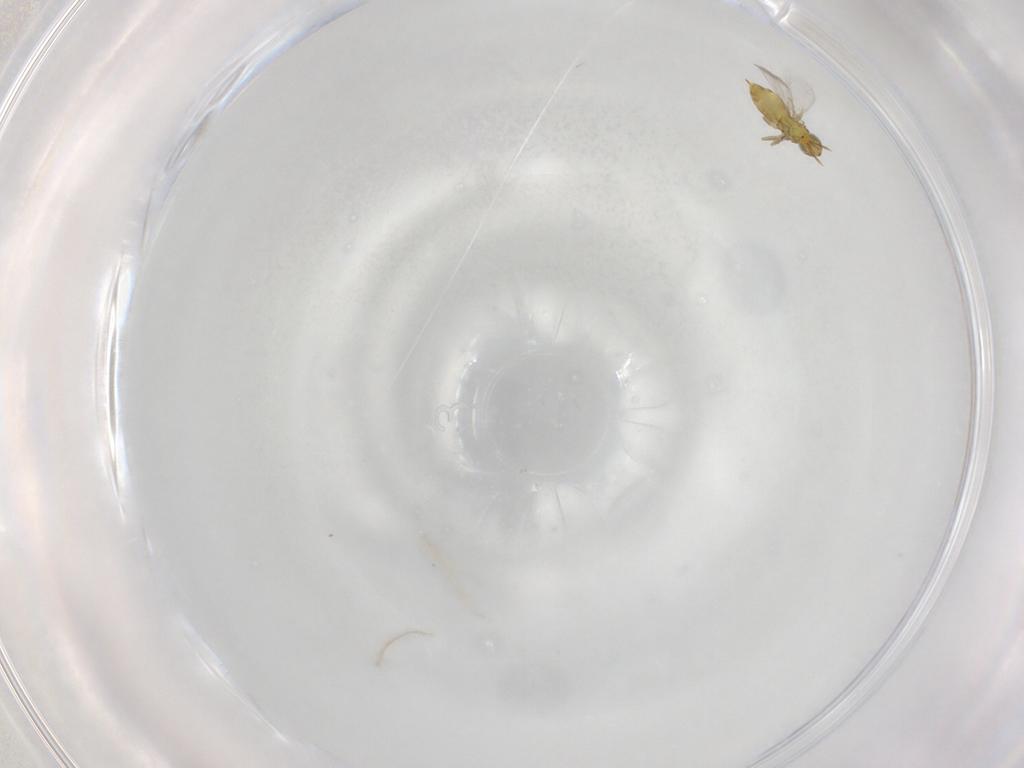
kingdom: Animalia
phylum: Arthropoda
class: Insecta
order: Hymenoptera
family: Aphelinidae
